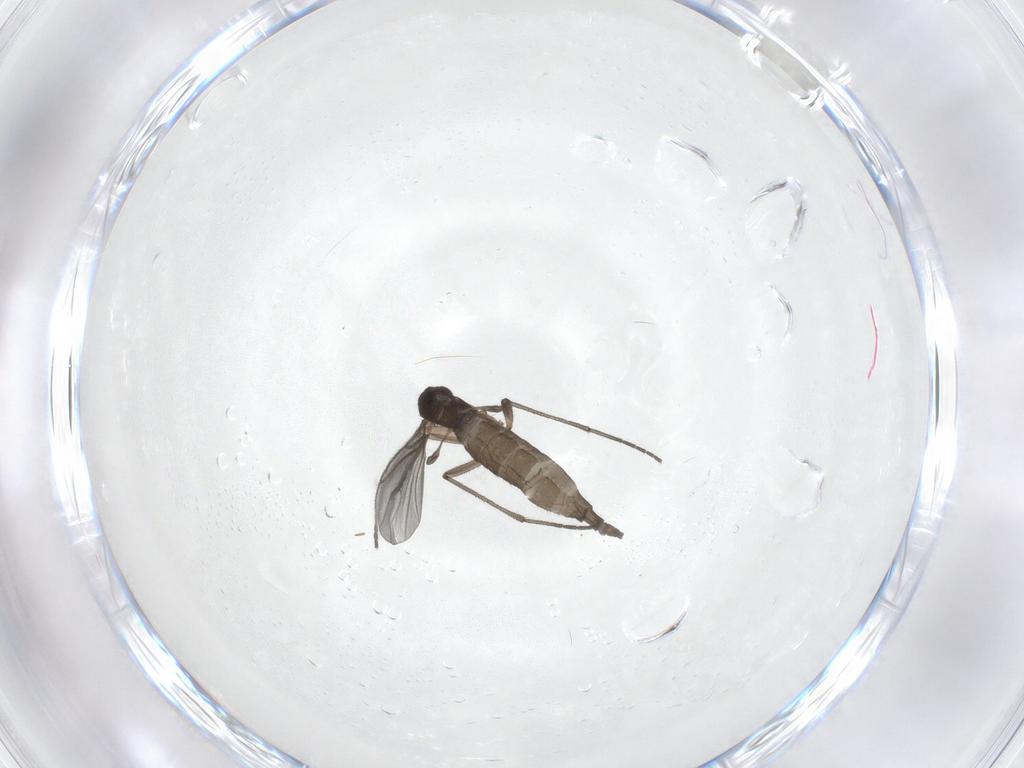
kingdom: Animalia
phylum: Arthropoda
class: Insecta
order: Diptera
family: Sciaridae
